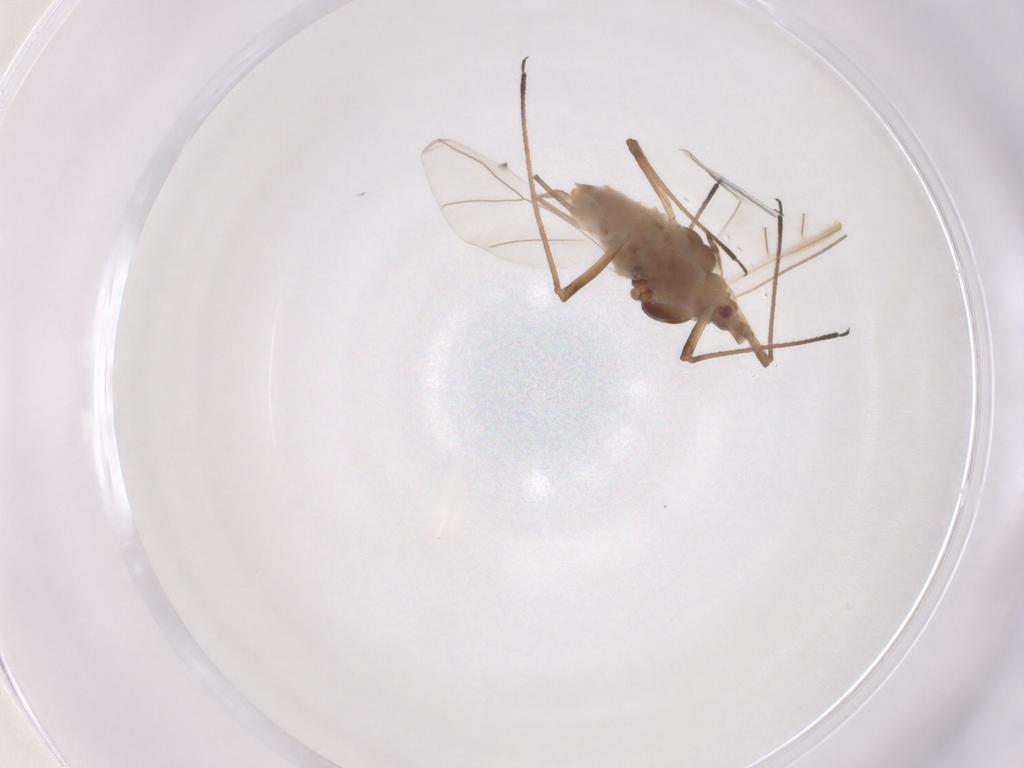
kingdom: Animalia
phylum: Arthropoda
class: Insecta
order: Hemiptera
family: Aphididae
